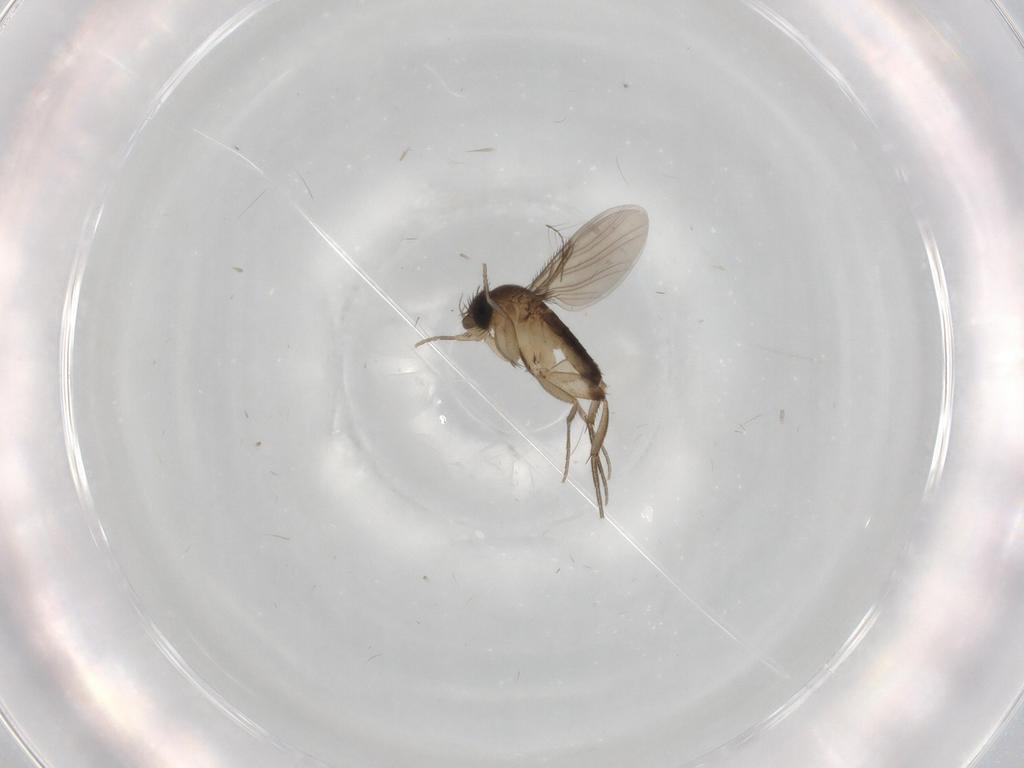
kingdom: Animalia
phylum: Arthropoda
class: Insecta
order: Diptera
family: Phoridae
